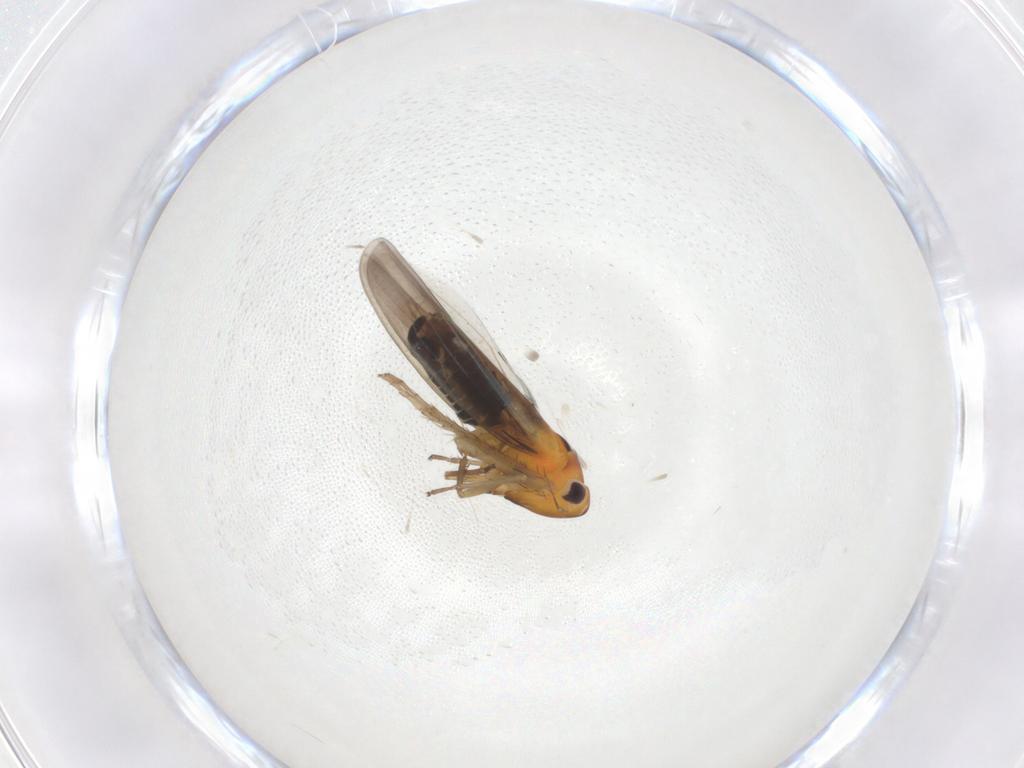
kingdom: Animalia
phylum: Arthropoda
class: Insecta
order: Hemiptera
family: Cicadellidae
